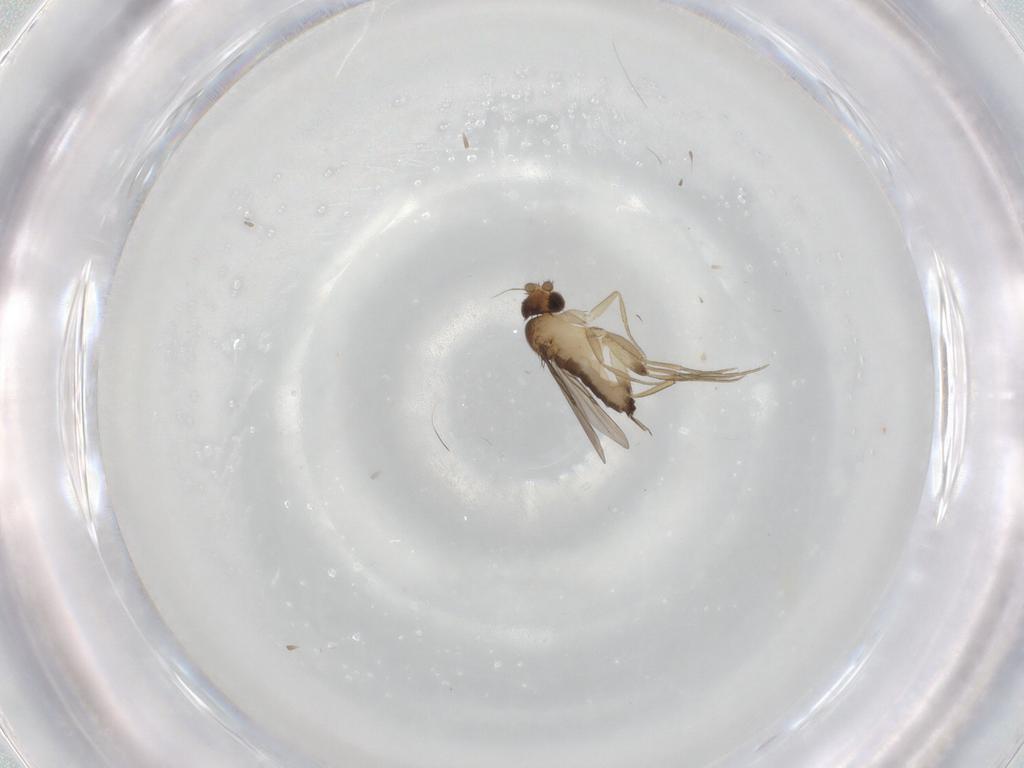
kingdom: Animalia
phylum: Arthropoda
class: Insecta
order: Diptera
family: Phoridae
